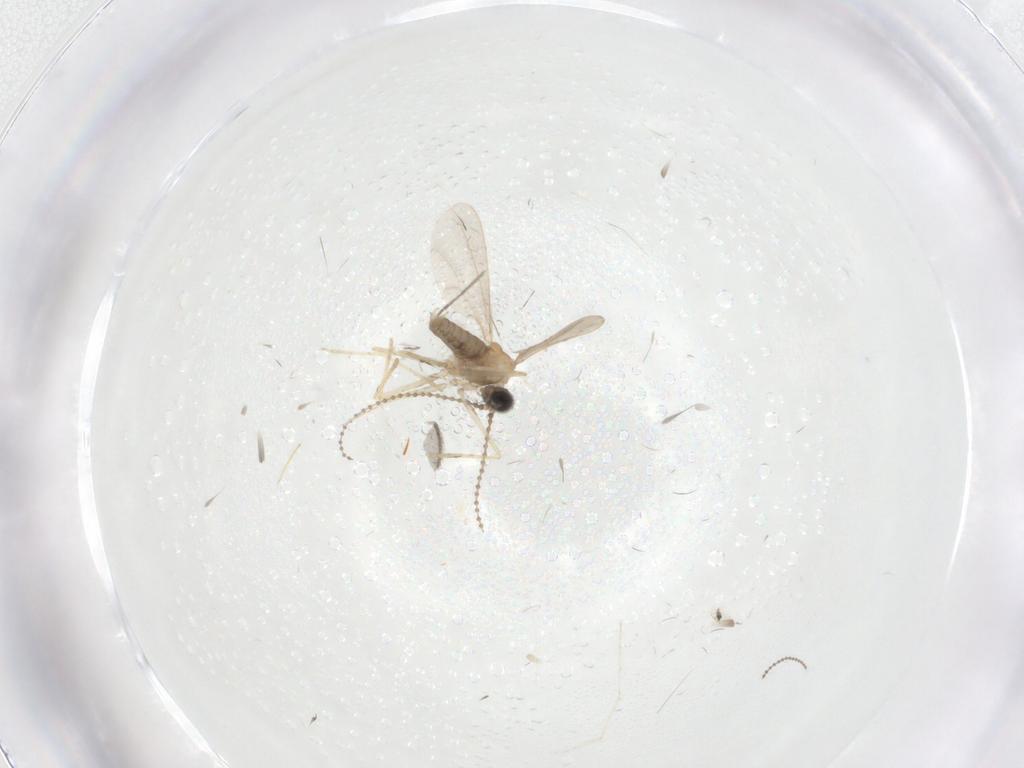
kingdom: Animalia
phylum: Arthropoda
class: Insecta
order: Diptera
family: Cecidomyiidae
